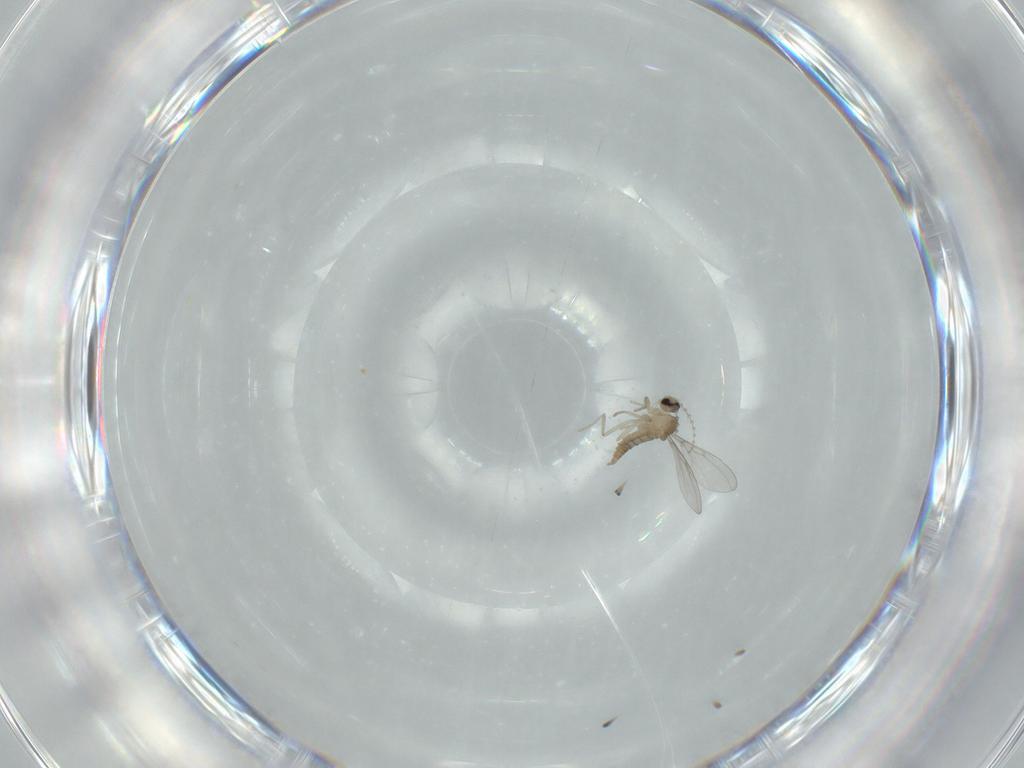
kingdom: Animalia
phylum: Arthropoda
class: Insecta
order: Diptera
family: Cecidomyiidae
